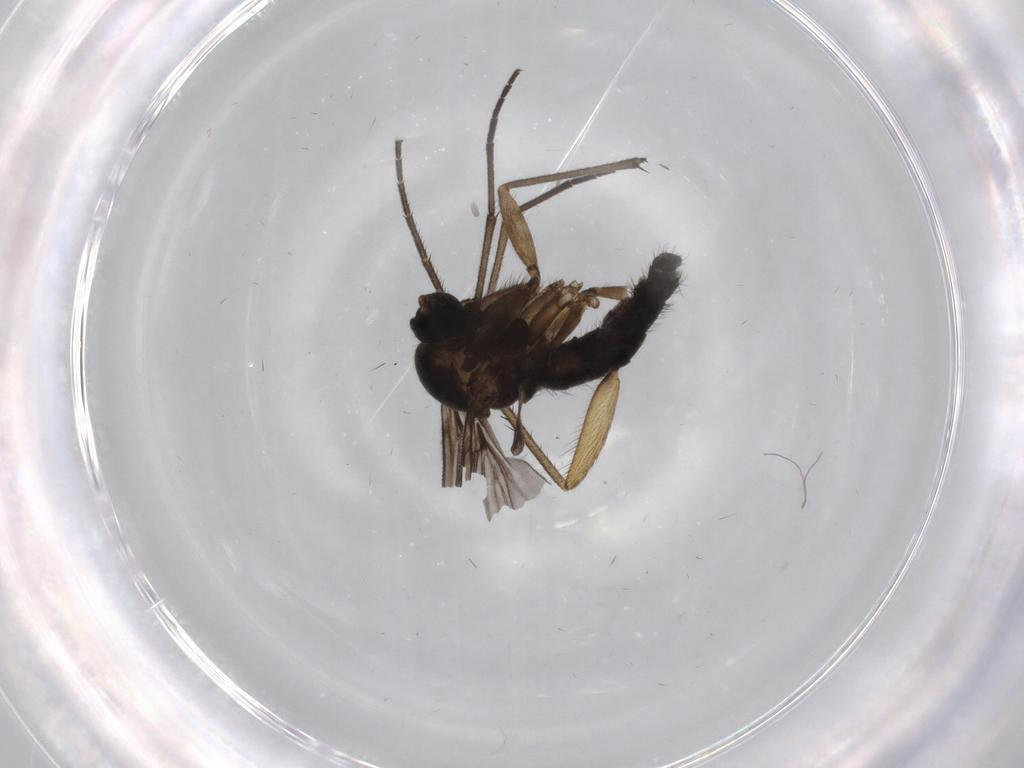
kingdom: Animalia
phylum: Arthropoda
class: Insecta
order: Diptera
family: Sciaridae
